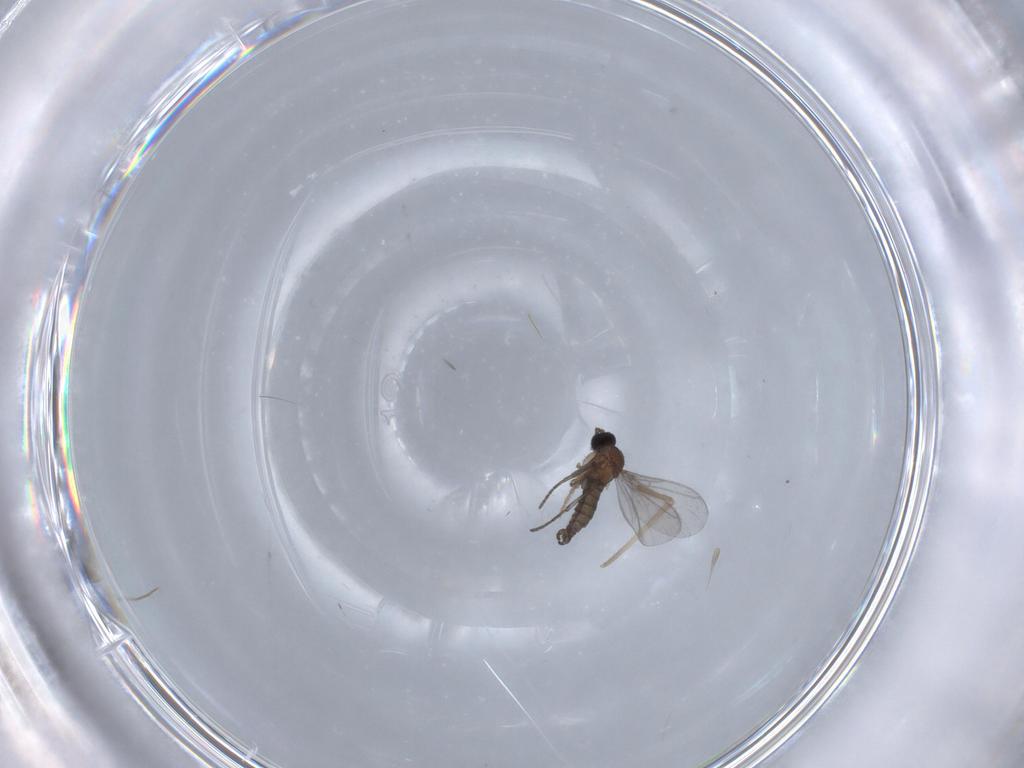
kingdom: Animalia
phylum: Arthropoda
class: Insecta
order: Diptera
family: Chironomidae
